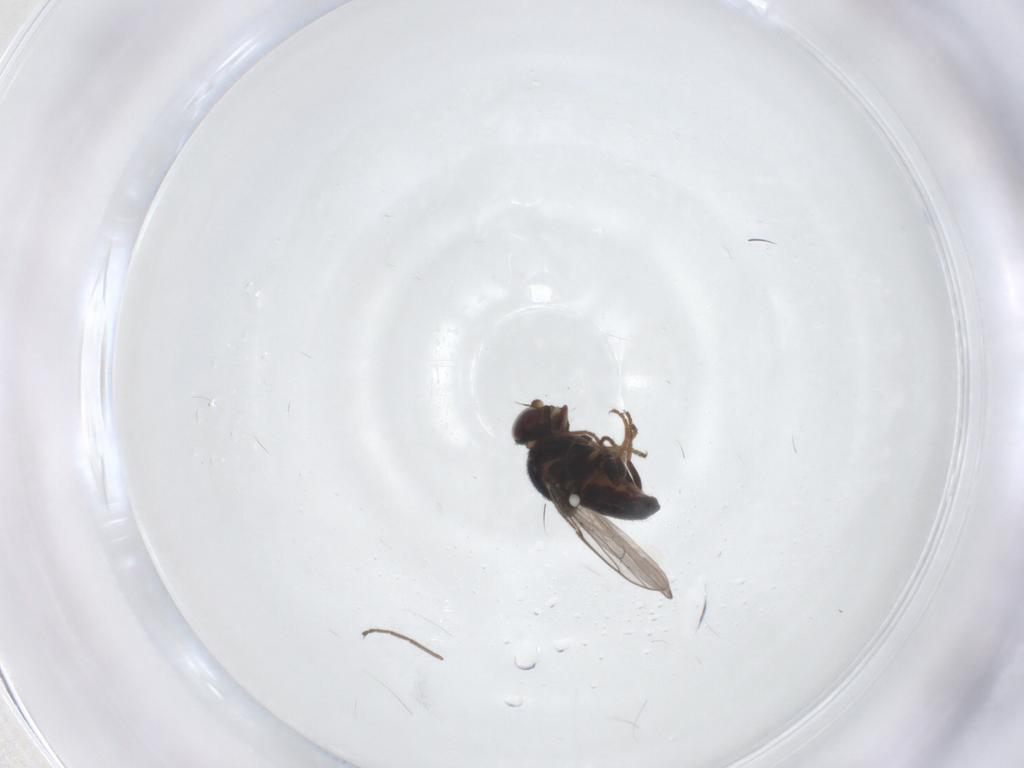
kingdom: Animalia
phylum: Arthropoda
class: Insecta
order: Diptera
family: Chloropidae
